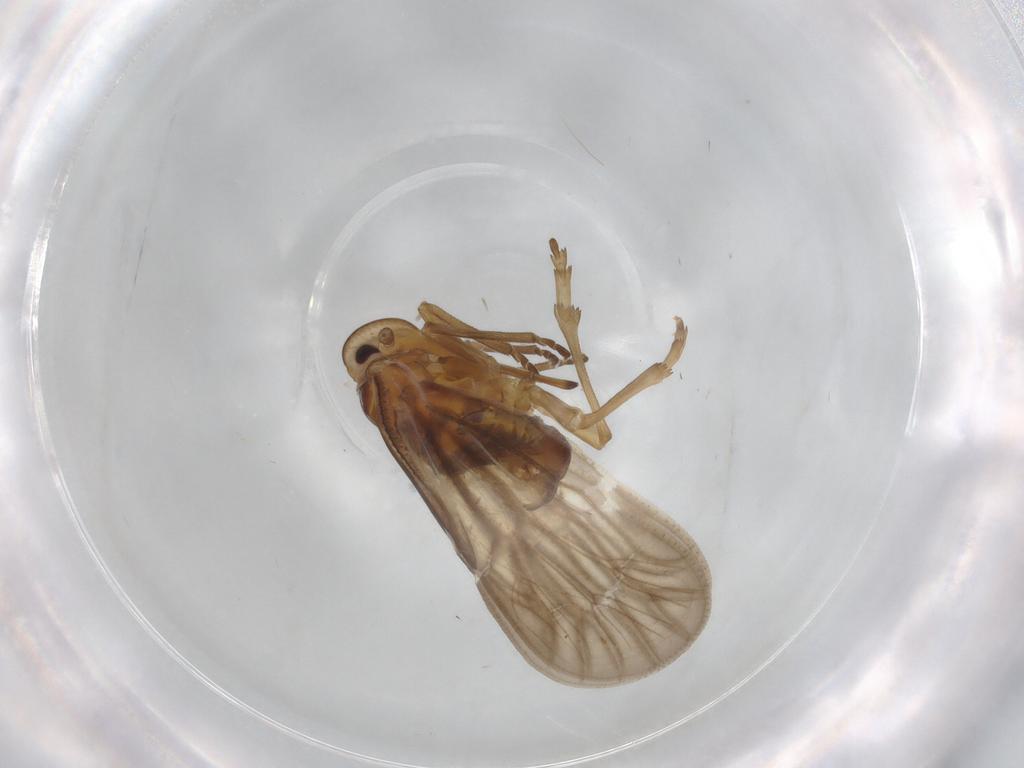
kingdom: Animalia
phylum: Arthropoda
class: Insecta
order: Hemiptera
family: Meenoplidae
